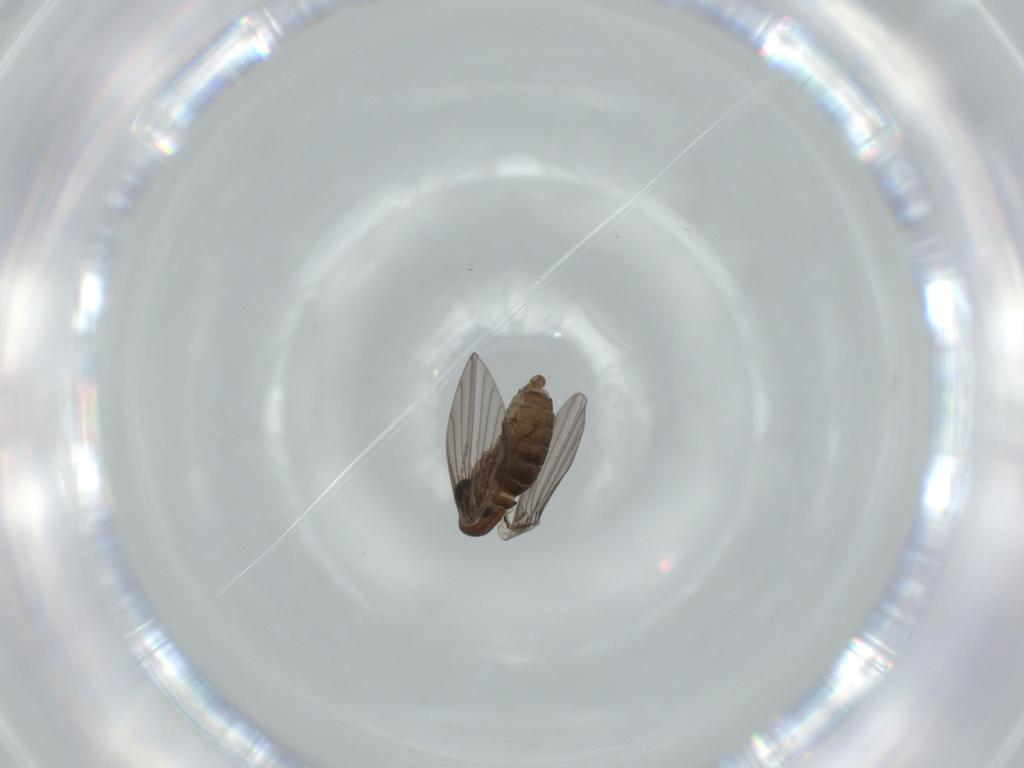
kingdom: Animalia
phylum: Arthropoda
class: Insecta
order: Diptera
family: Psychodidae
